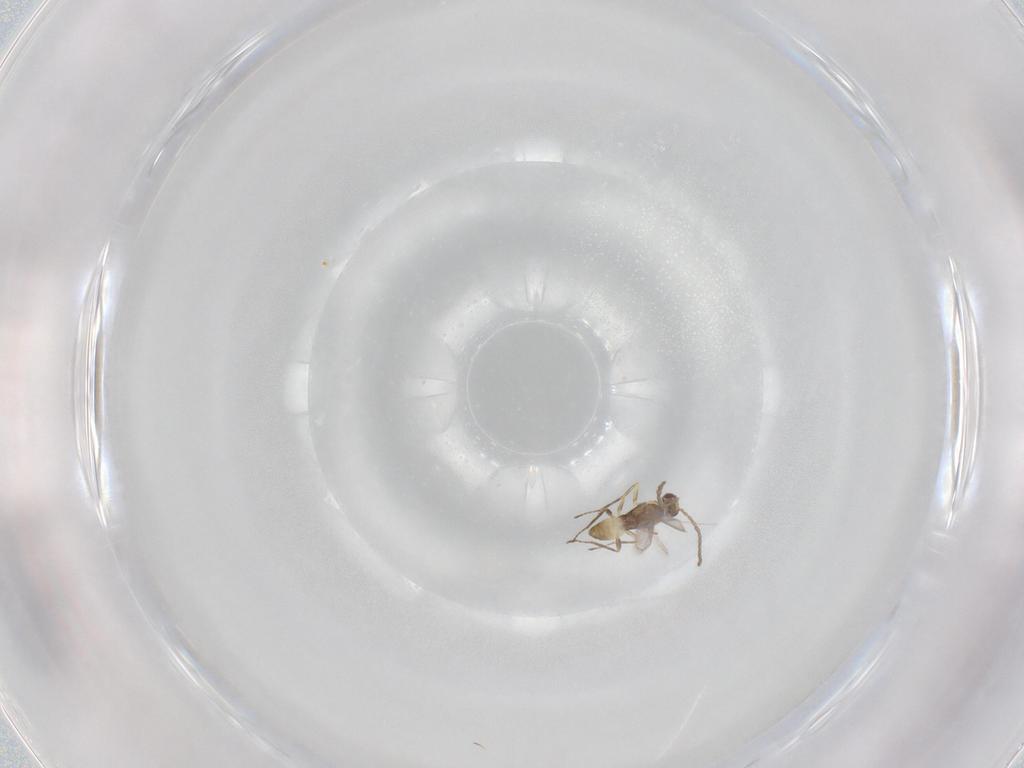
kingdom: Animalia
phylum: Arthropoda
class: Insecta
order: Hymenoptera
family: Mymaridae
